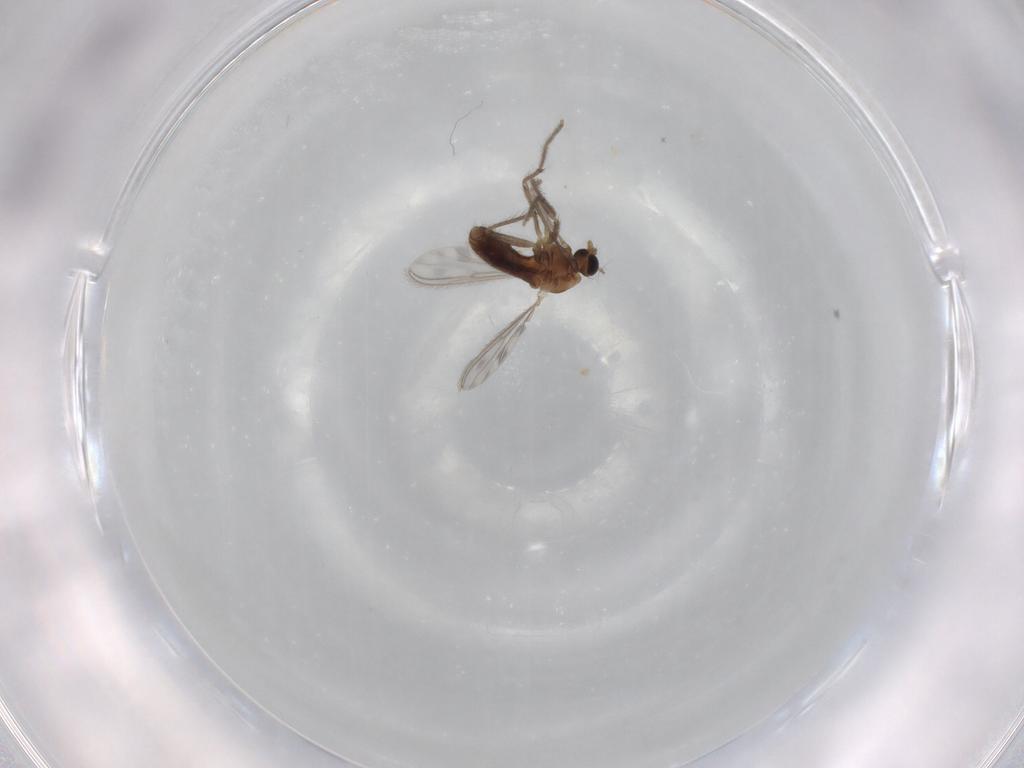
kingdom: Animalia
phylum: Arthropoda
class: Insecta
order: Diptera
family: Chironomidae
